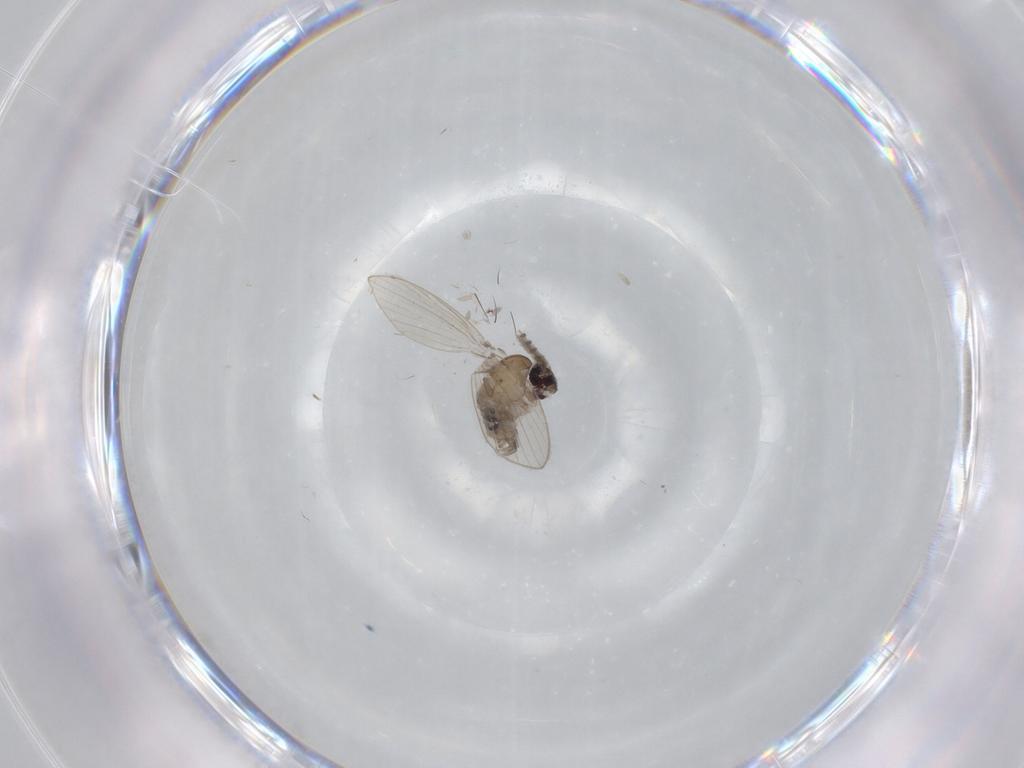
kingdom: Animalia
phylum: Arthropoda
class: Insecta
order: Diptera
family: Psychodidae
